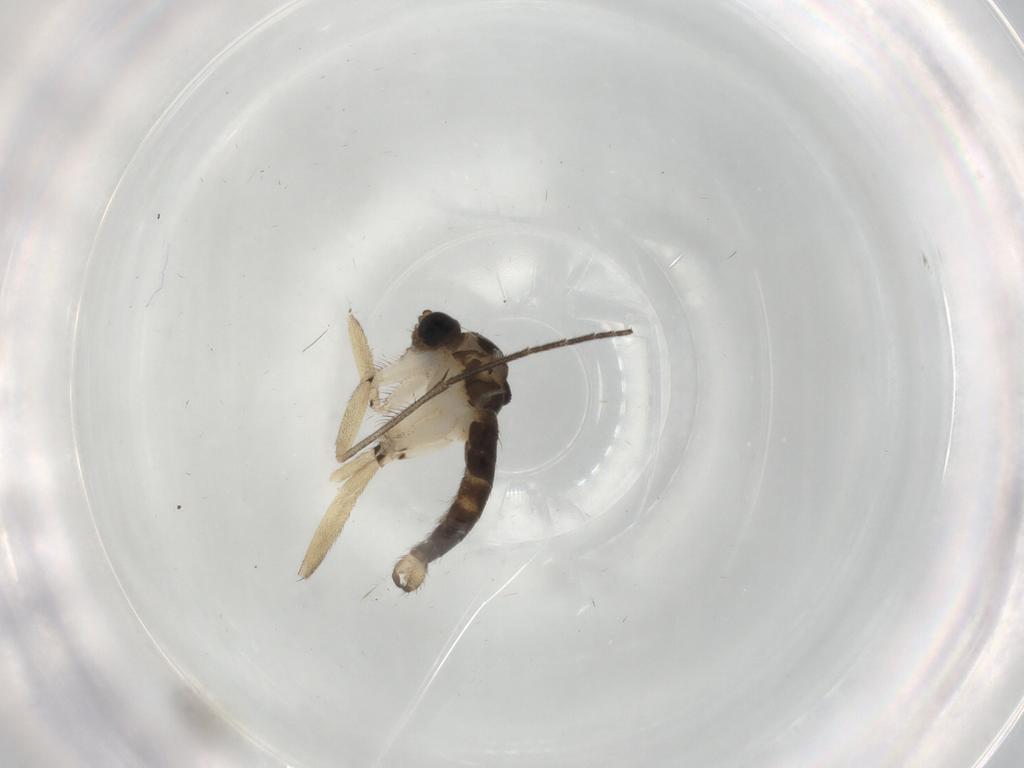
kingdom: Animalia
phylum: Arthropoda
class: Insecta
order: Diptera
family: Sciaridae
